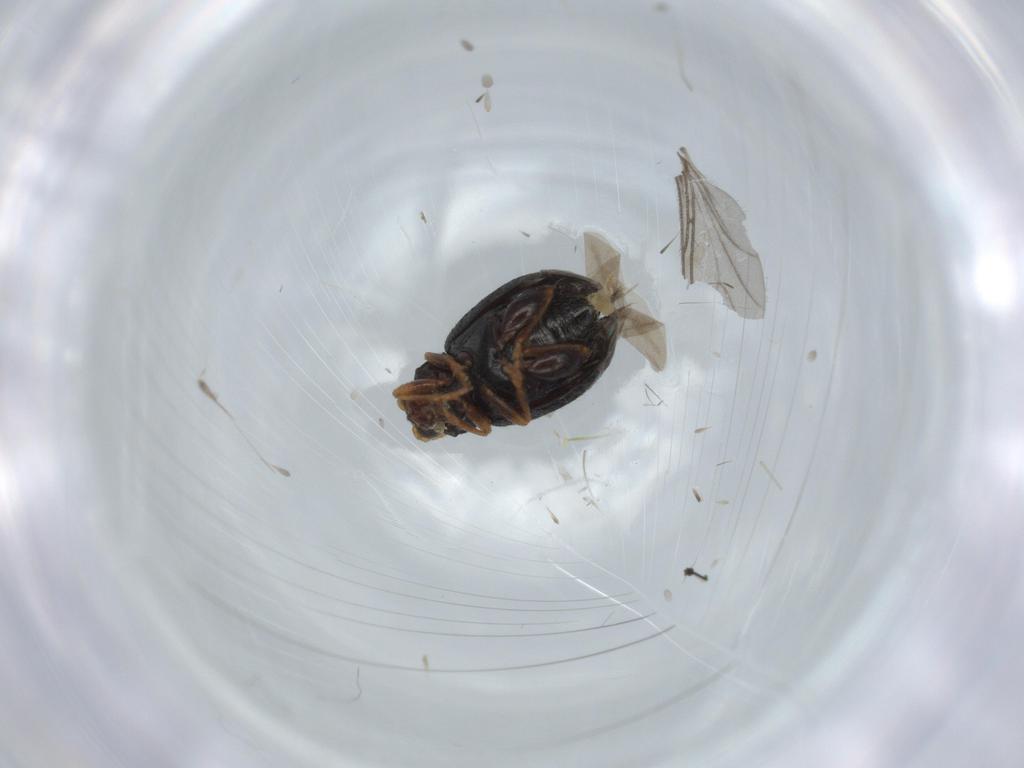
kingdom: Animalia
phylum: Arthropoda
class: Insecta
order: Coleoptera
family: Chrysomelidae
